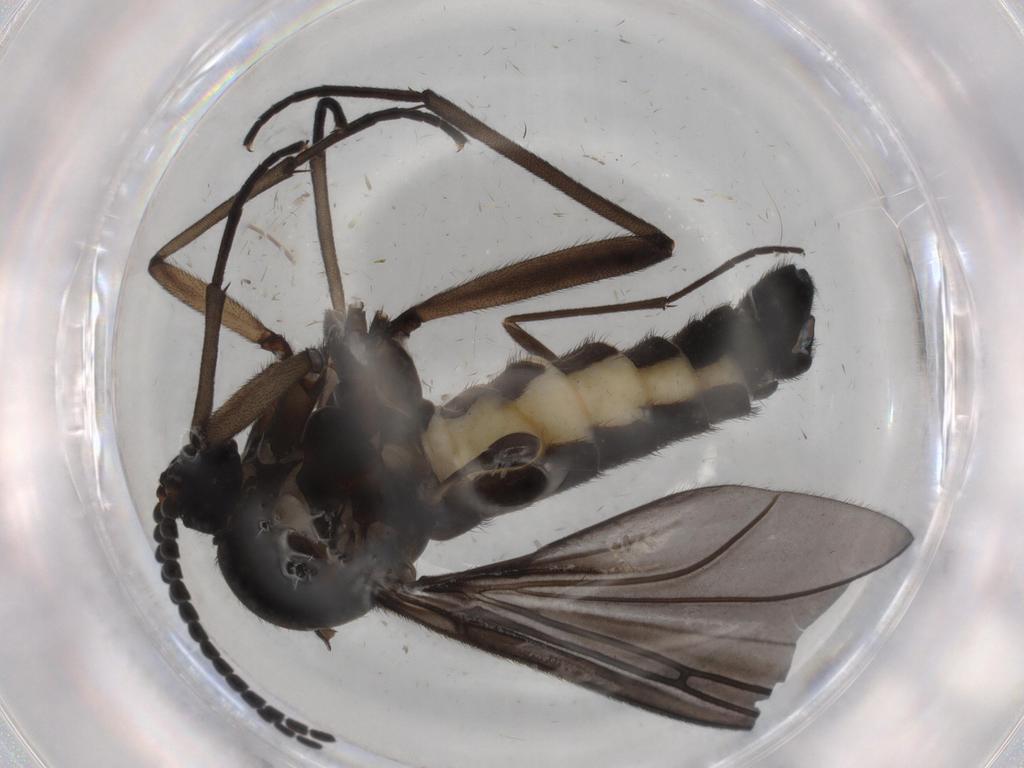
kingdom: Animalia
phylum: Arthropoda
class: Insecta
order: Diptera
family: Sciaridae
